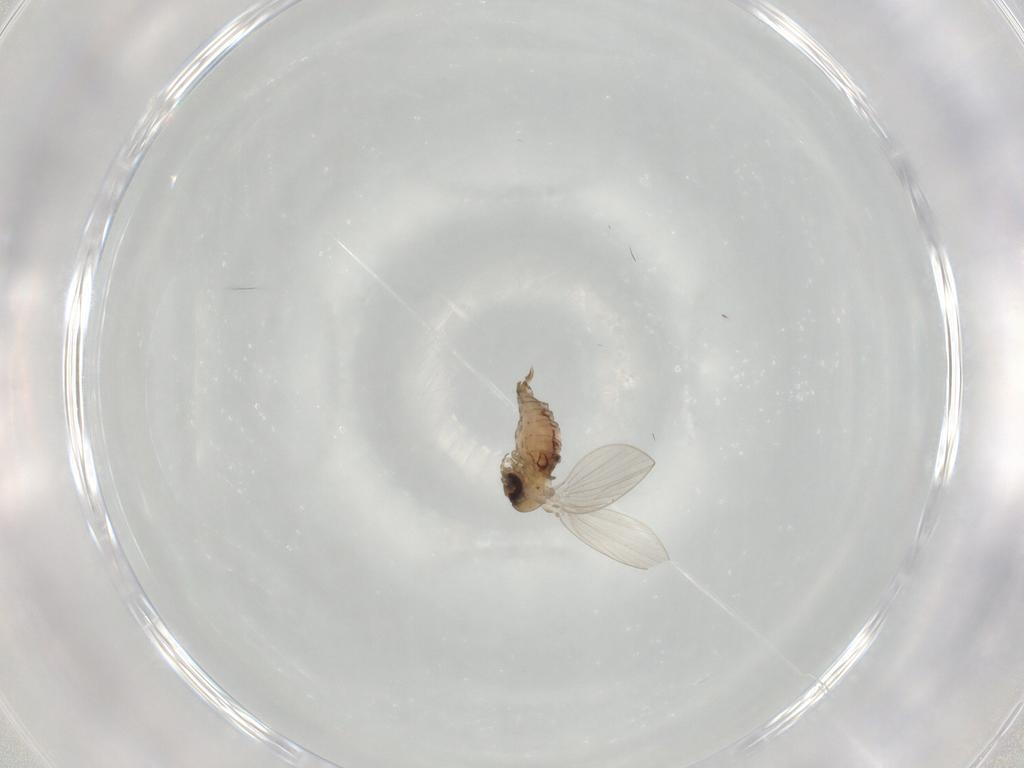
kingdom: Animalia
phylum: Arthropoda
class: Insecta
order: Diptera
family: Psychodidae
